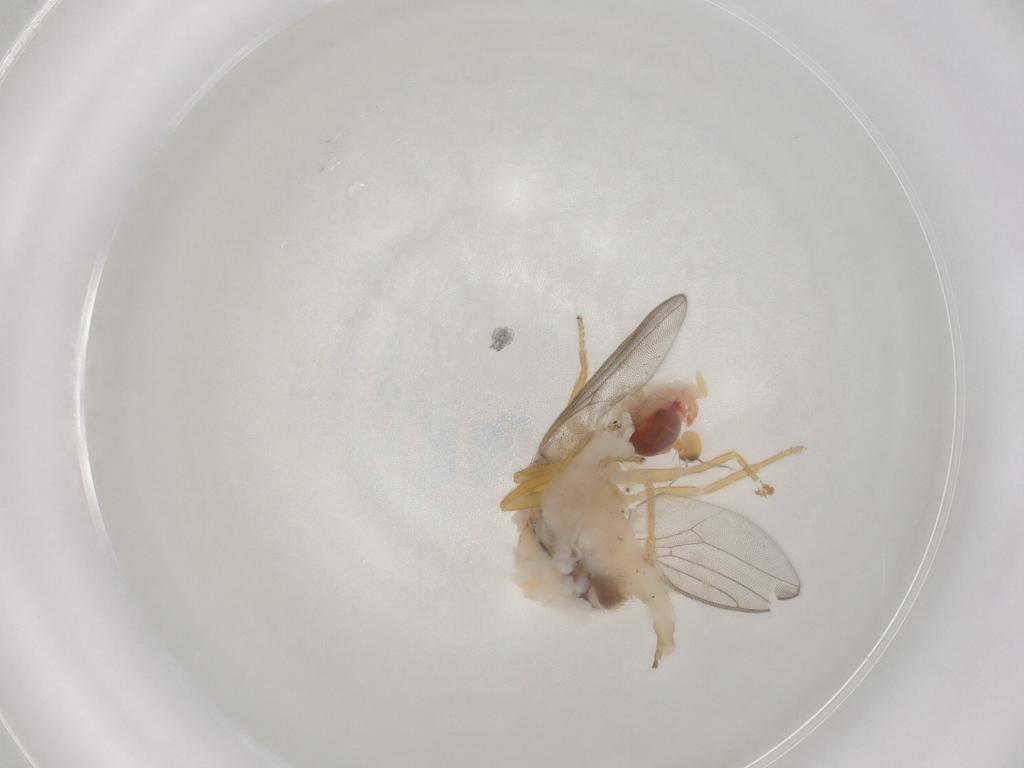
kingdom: Animalia
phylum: Arthropoda
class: Insecta
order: Diptera
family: Chloropidae
